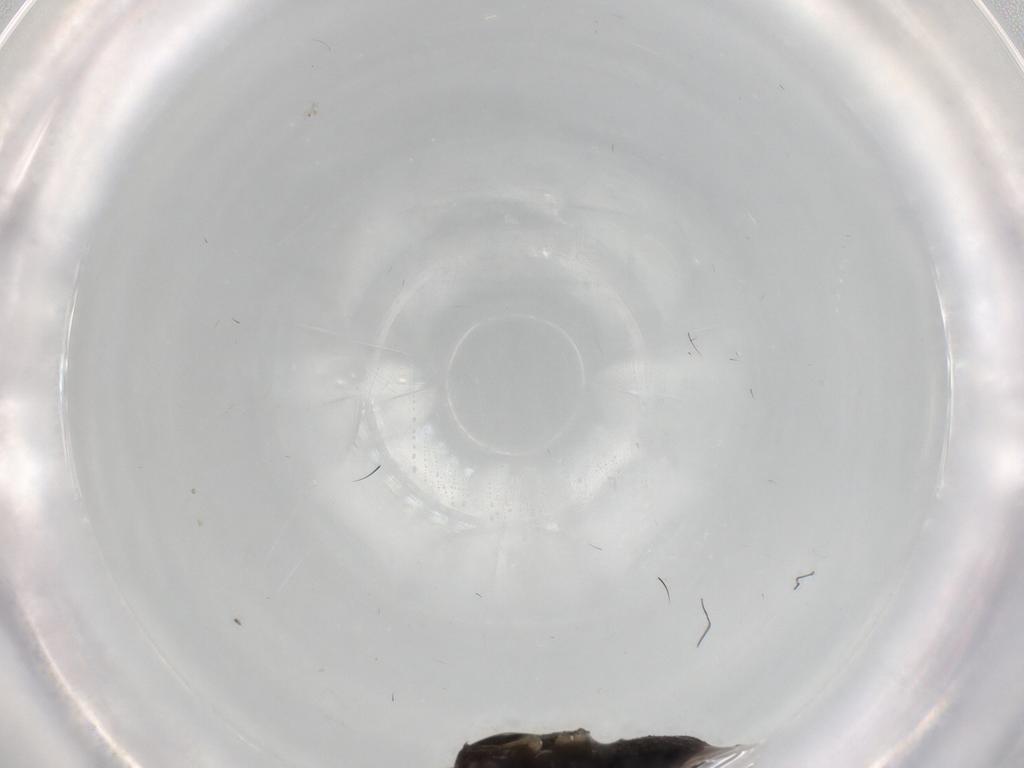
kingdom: Animalia
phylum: Arthropoda
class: Insecta
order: Hemiptera
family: Miridae
